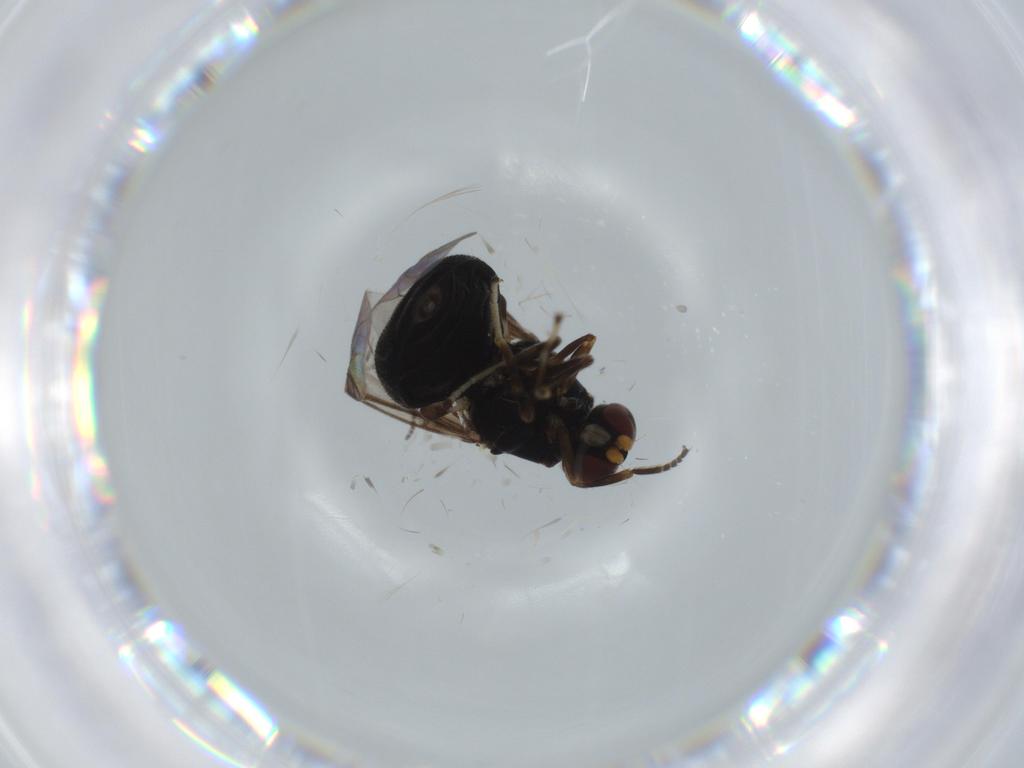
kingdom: Animalia
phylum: Arthropoda
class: Insecta
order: Diptera
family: Stratiomyidae
